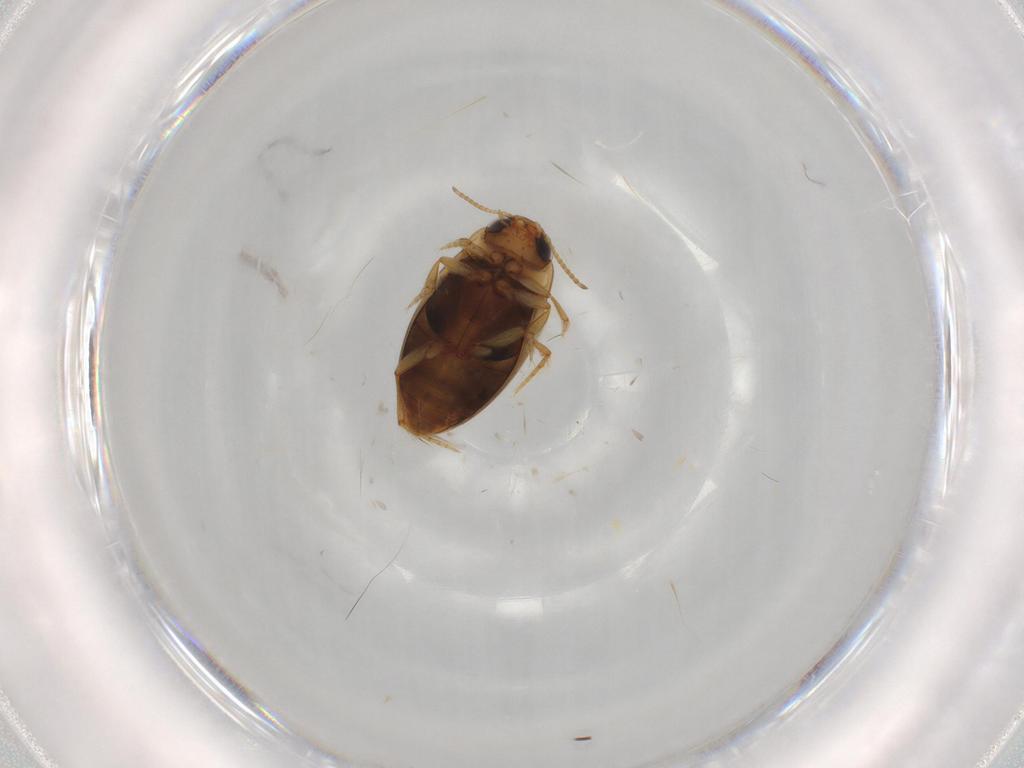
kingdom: Animalia
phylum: Arthropoda
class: Insecta
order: Coleoptera
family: Dytiscidae
